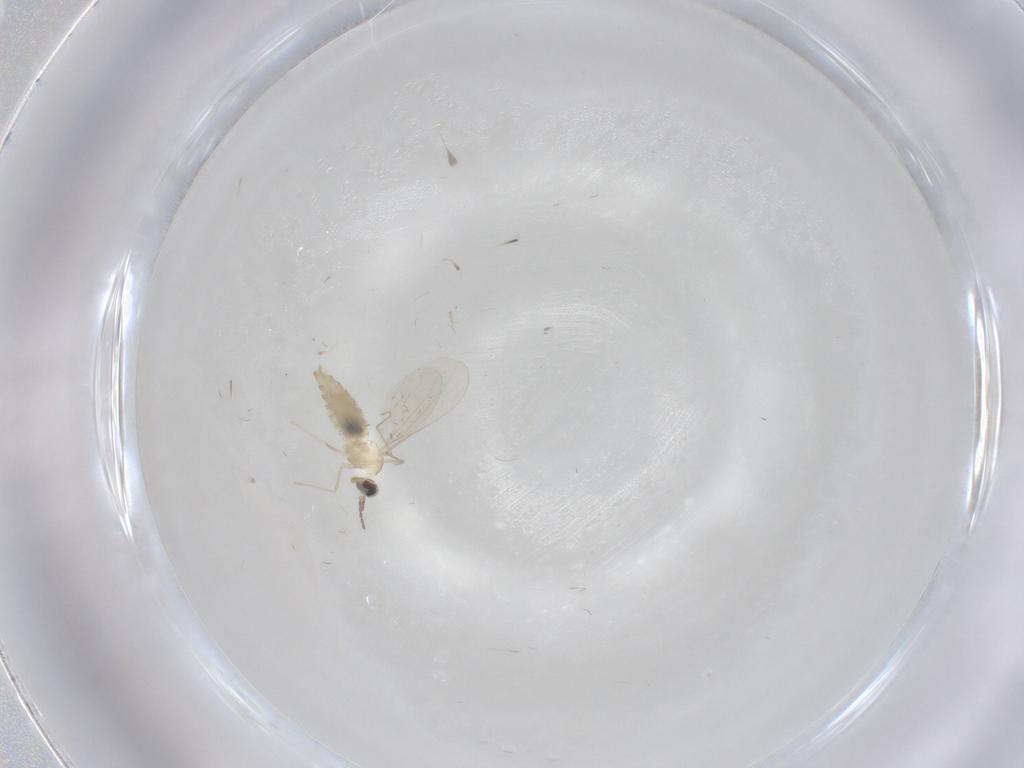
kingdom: Animalia
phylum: Arthropoda
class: Insecta
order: Diptera
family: Cecidomyiidae
